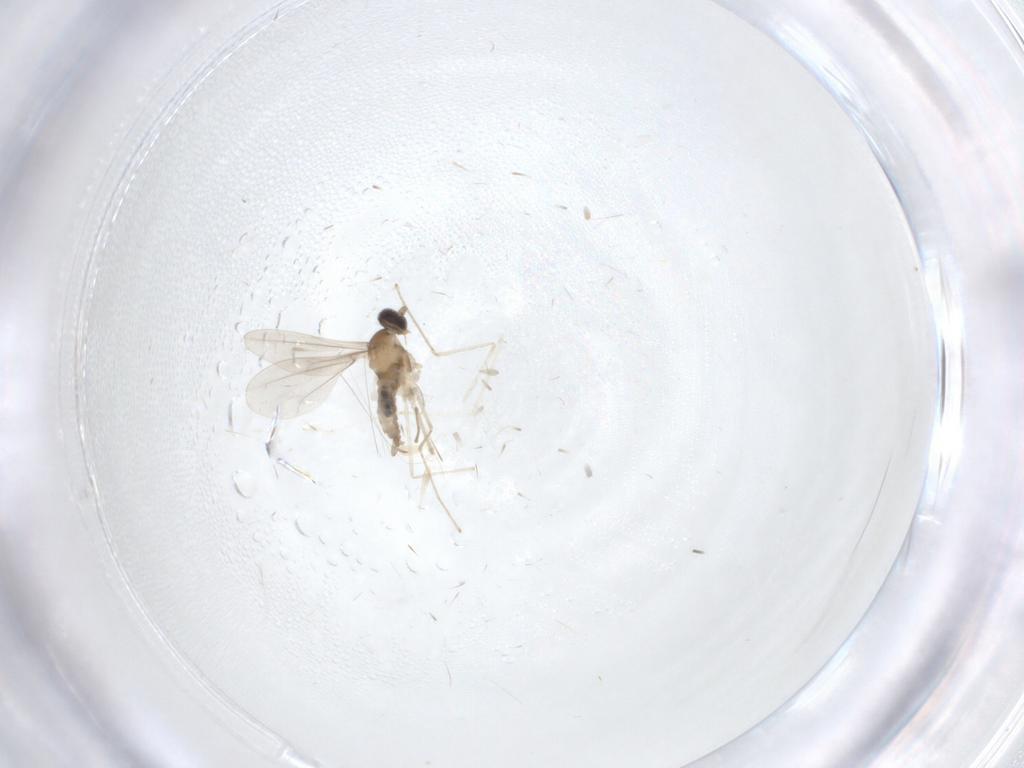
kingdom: Animalia
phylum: Arthropoda
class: Insecta
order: Diptera
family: Cecidomyiidae
